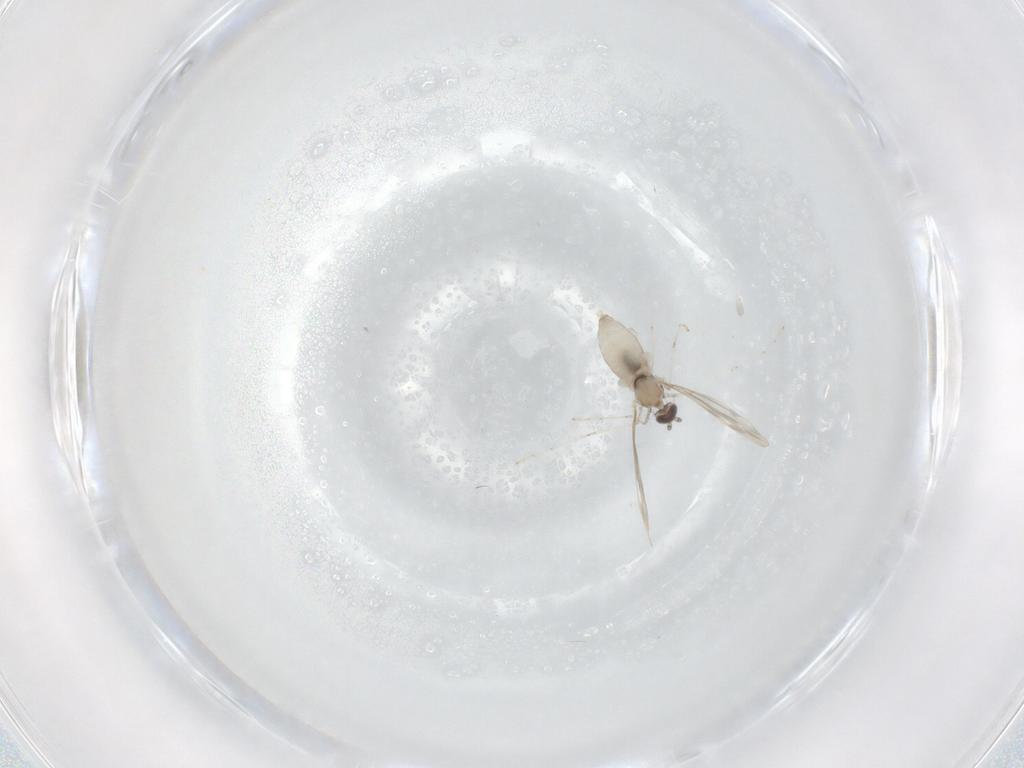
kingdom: Animalia
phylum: Arthropoda
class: Insecta
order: Diptera
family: Cecidomyiidae
